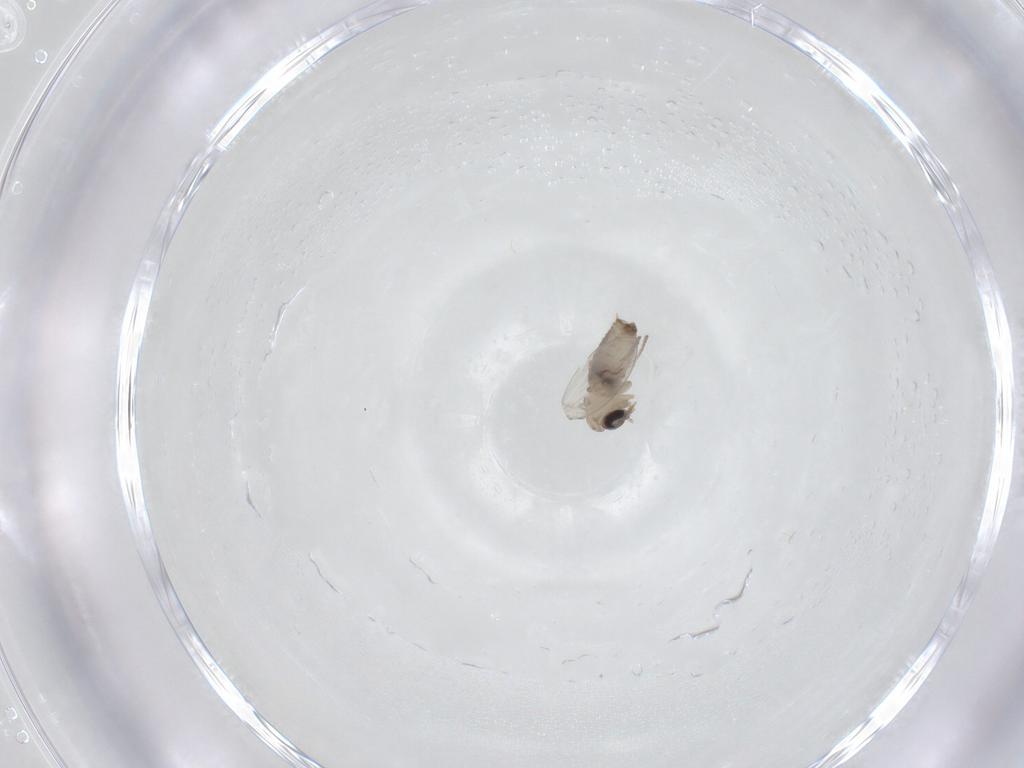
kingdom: Animalia
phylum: Arthropoda
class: Insecta
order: Diptera
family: Psychodidae
